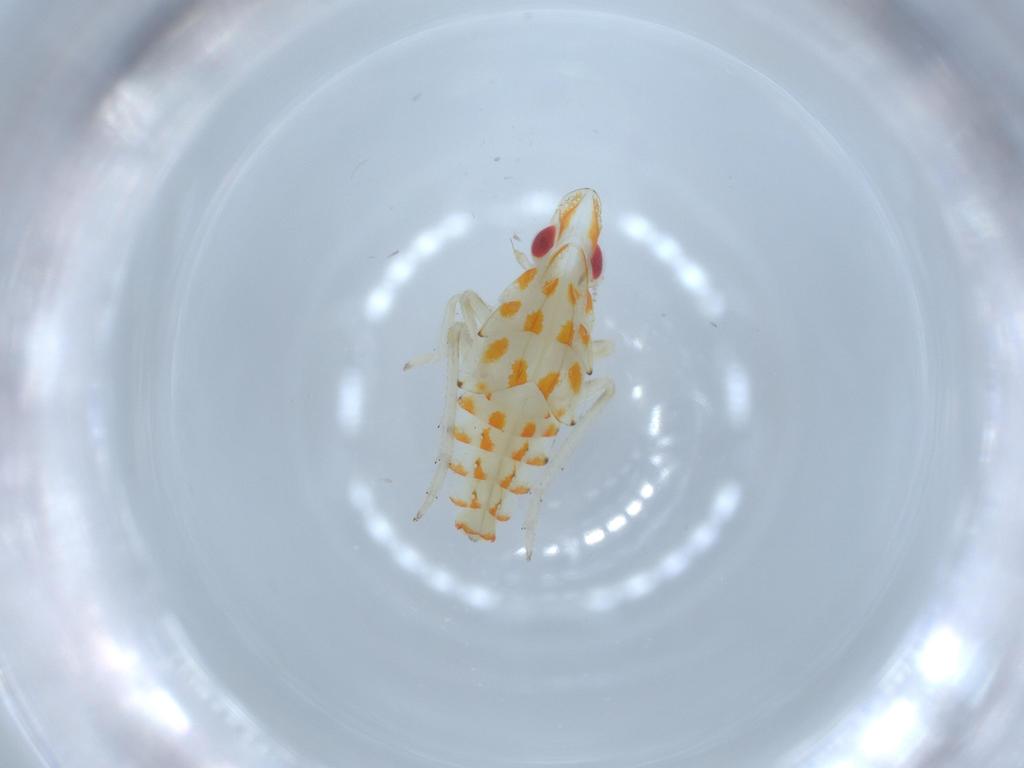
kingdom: Animalia
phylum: Arthropoda
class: Insecta
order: Hemiptera
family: Tropiduchidae
